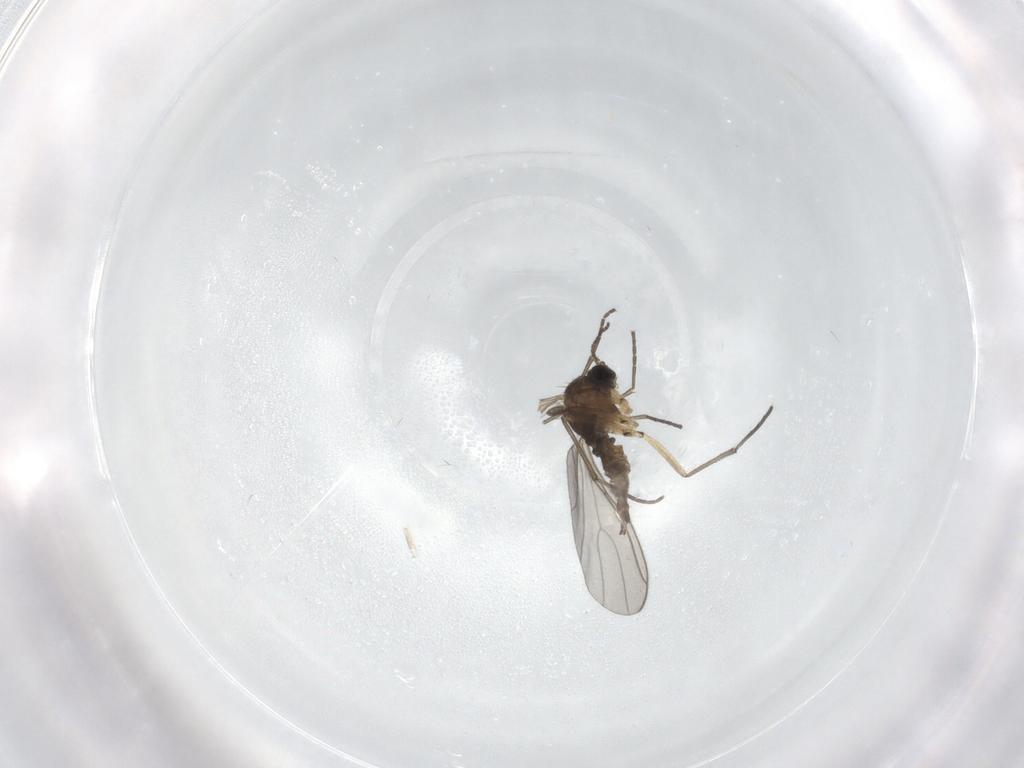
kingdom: Animalia
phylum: Arthropoda
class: Insecta
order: Diptera
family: Sciaridae
